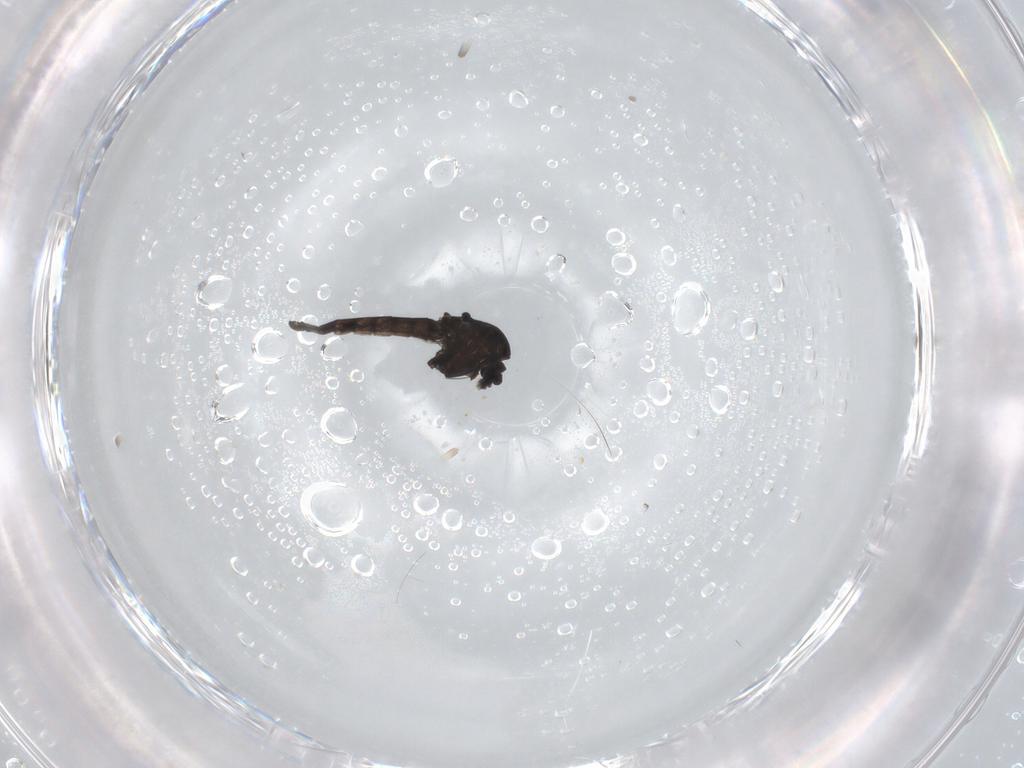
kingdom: Animalia
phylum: Arthropoda
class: Insecta
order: Diptera
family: Chironomidae
